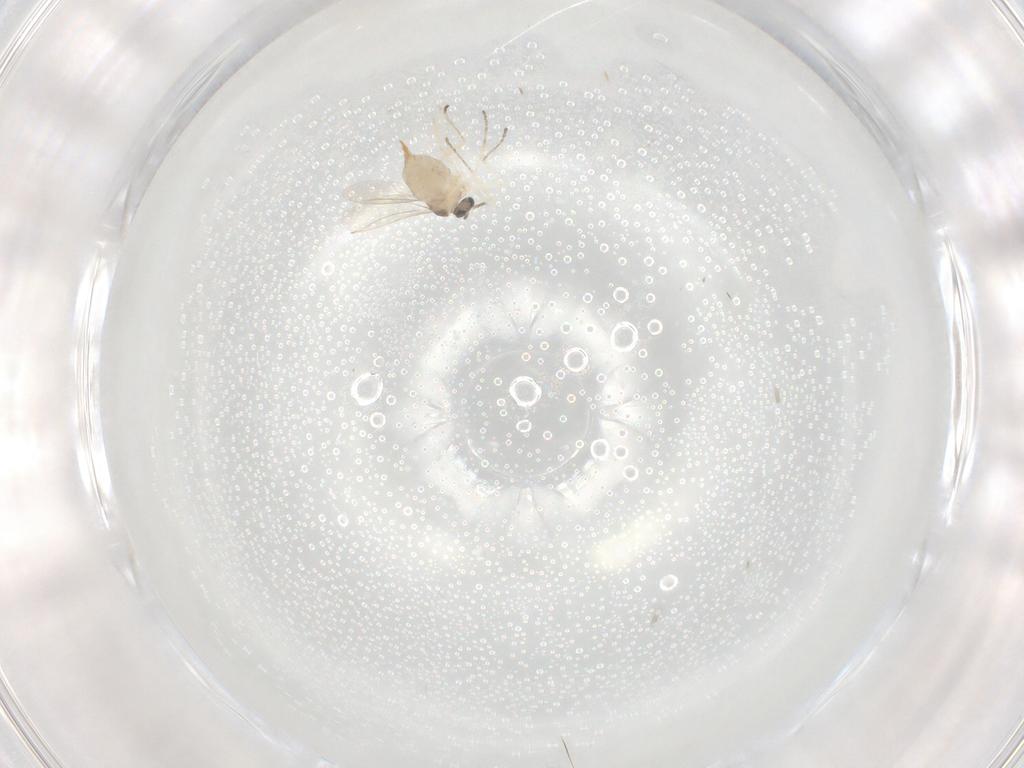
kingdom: Animalia
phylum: Arthropoda
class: Insecta
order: Diptera
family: Cecidomyiidae
